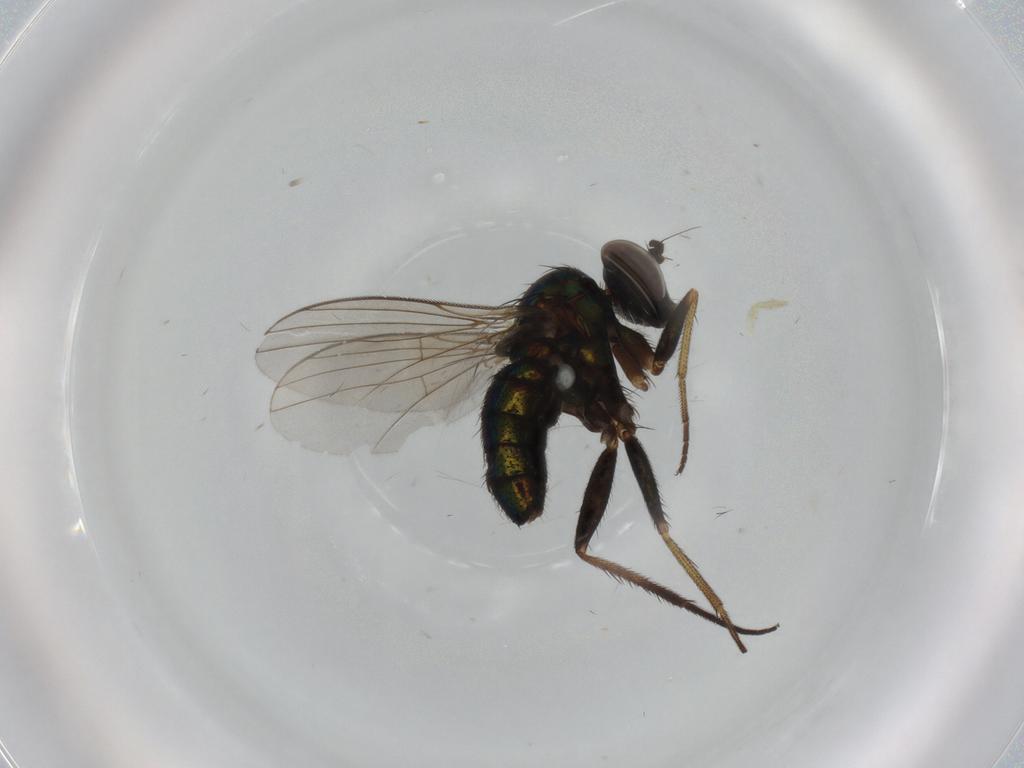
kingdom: Animalia
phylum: Arthropoda
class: Insecta
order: Diptera
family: Dolichopodidae
